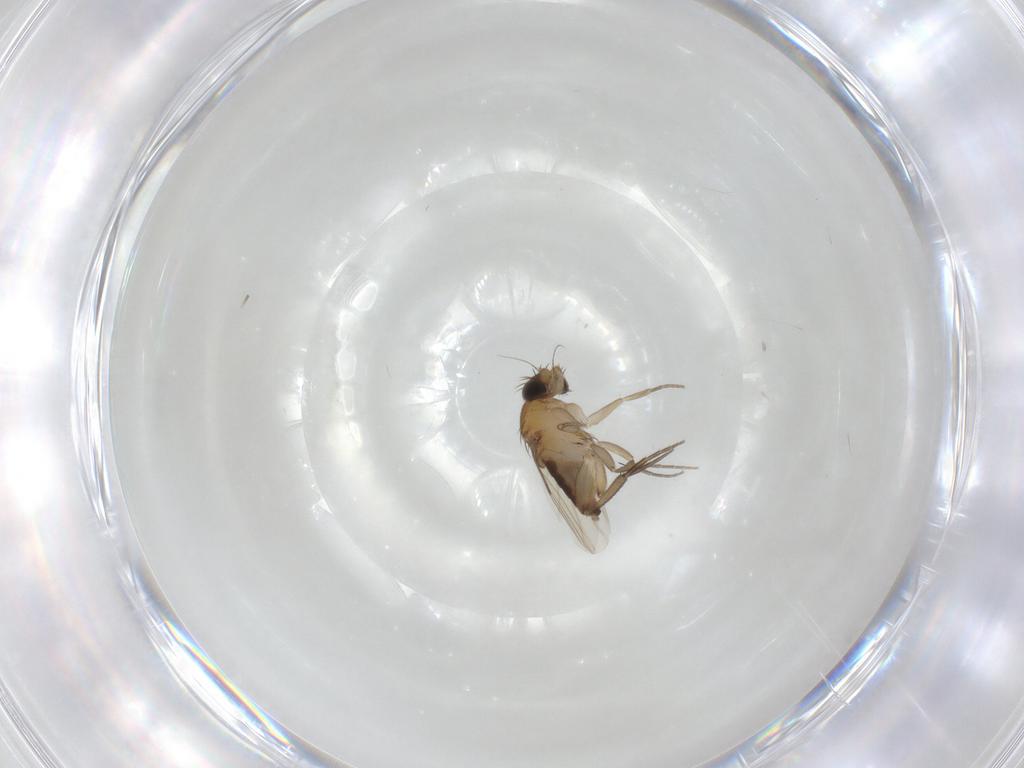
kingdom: Animalia
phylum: Arthropoda
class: Insecta
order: Diptera
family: Phoridae
